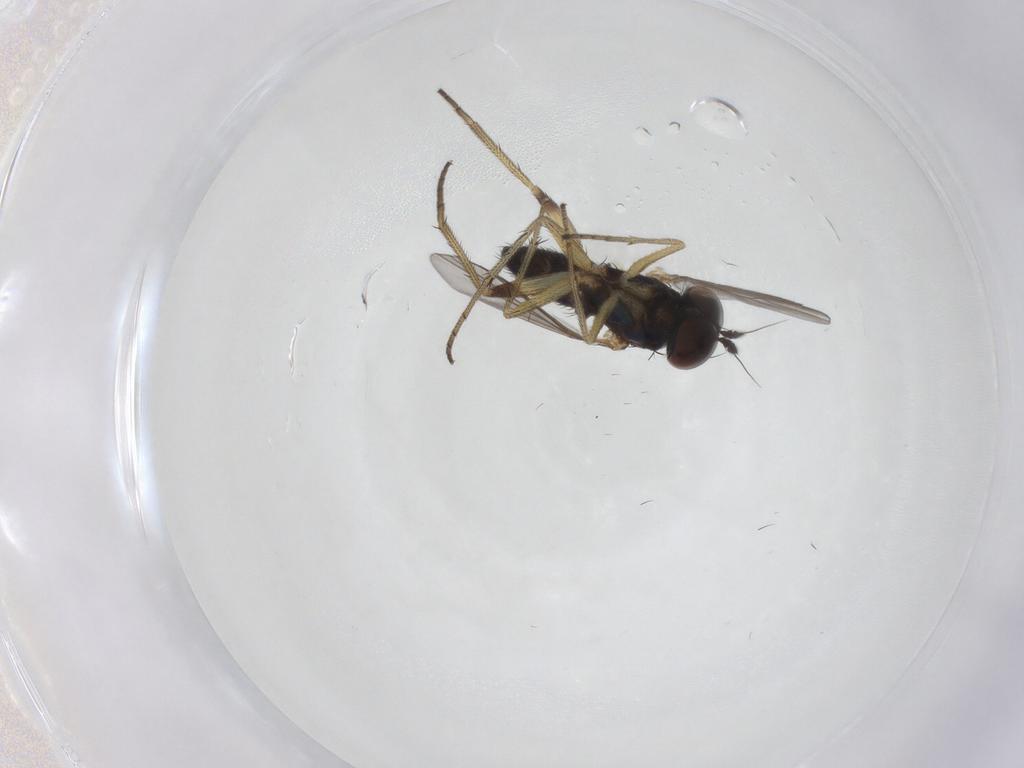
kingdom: Animalia
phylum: Arthropoda
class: Insecta
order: Diptera
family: Dolichopodidae
